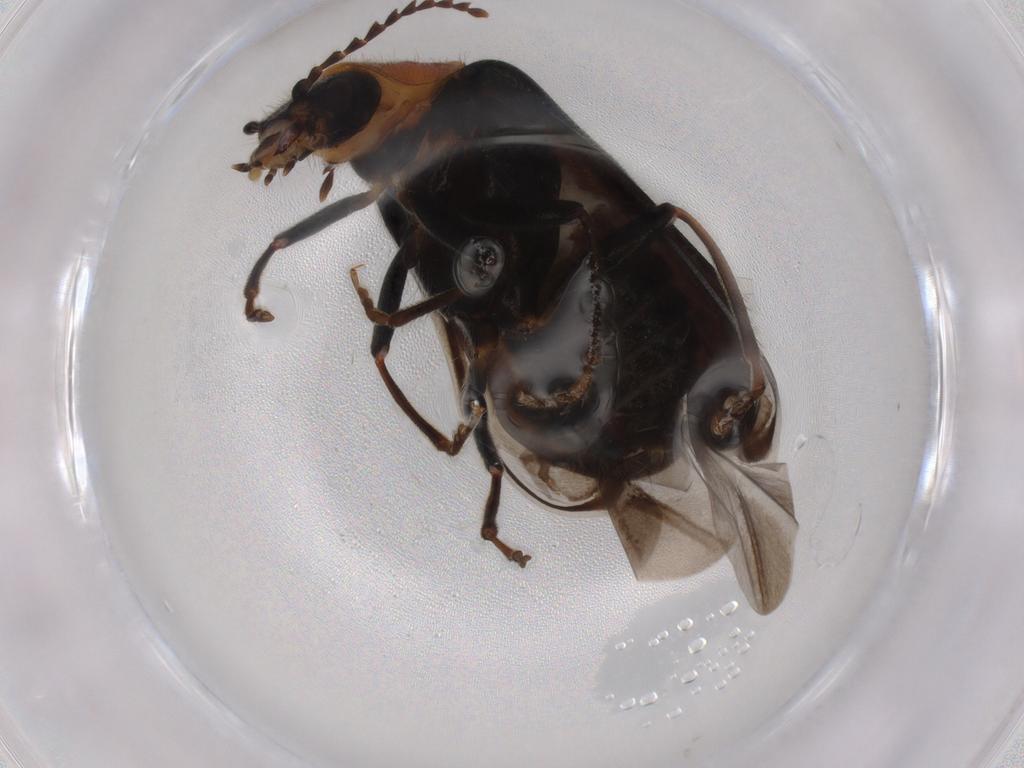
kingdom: Animalia
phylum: Arthropoda
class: Insecta
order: Coleoptera
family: Melyridae
